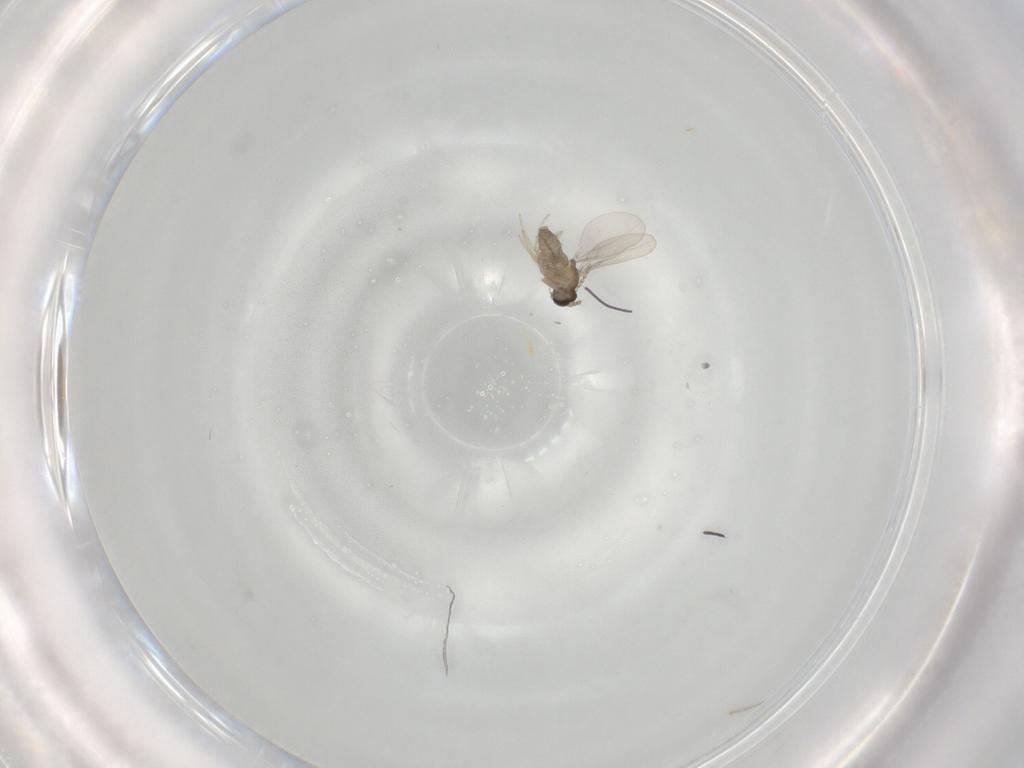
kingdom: Animalia
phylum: Arthropoda
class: Insecta
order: Diptera
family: Cecidomyiidae
